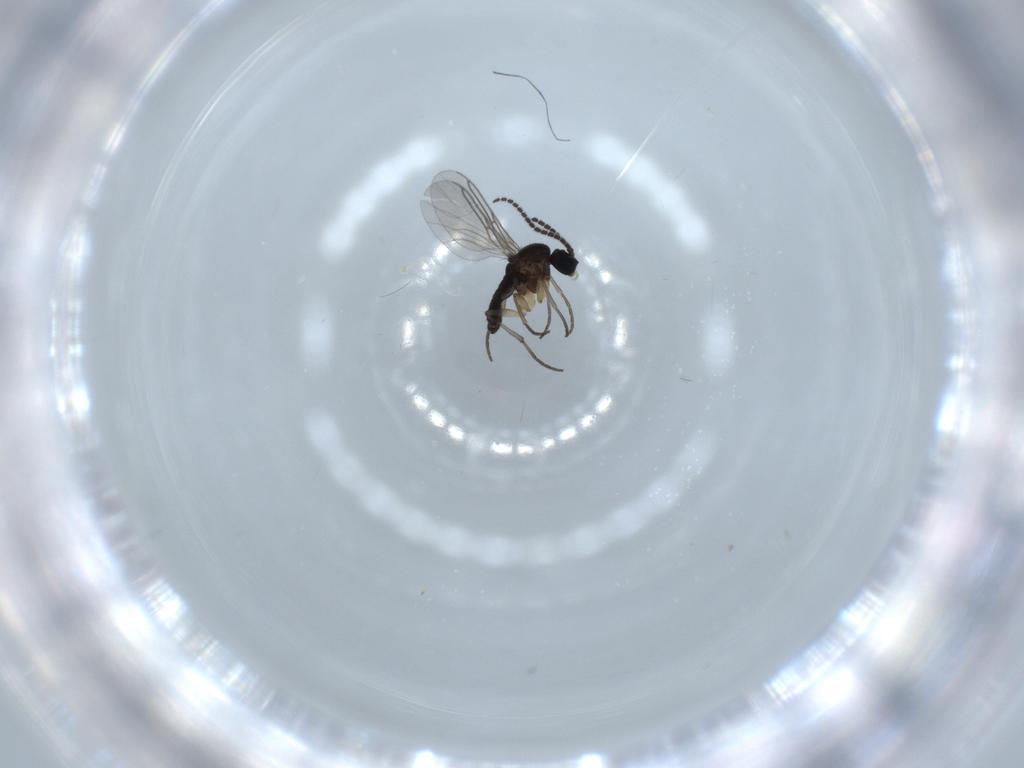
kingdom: Animalia
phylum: Arthropoda
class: Insecta
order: Diptera
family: Sciaridae
